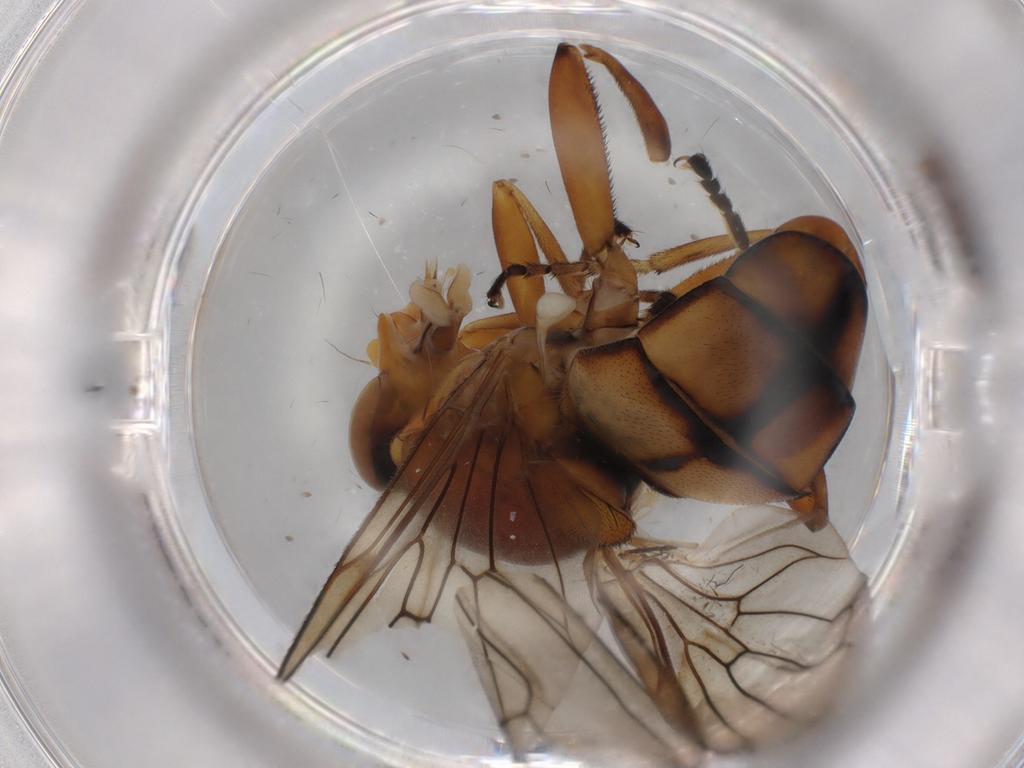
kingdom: Animalia
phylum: Arthropoda
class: Insecta
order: Diptera
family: Syrphidae
